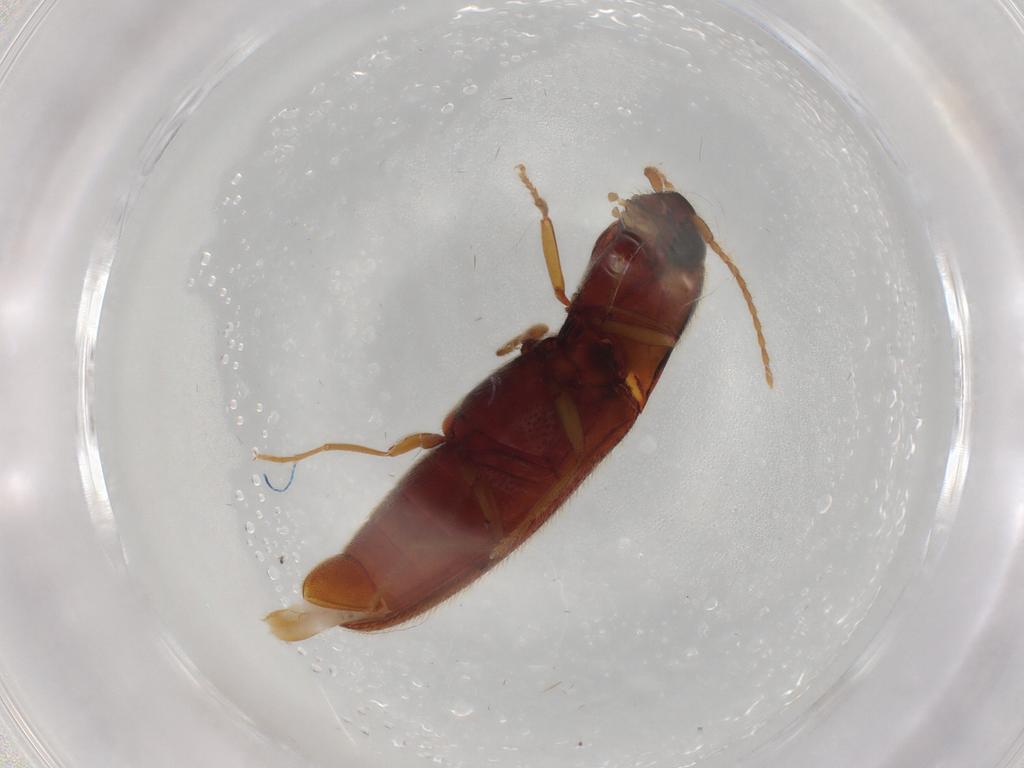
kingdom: Animalia
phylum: Arthropoda
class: Insecta
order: Coleoptera
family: Elateridae
